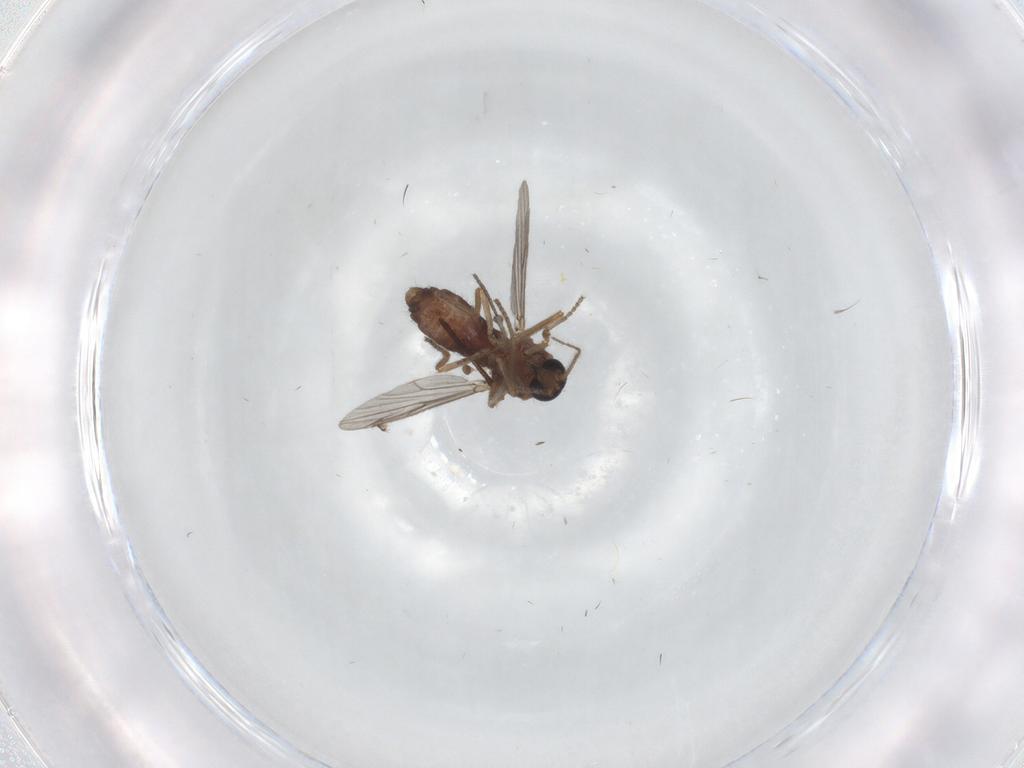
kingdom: Animalia
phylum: Arthropoda
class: Insecta
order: Diptera
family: Ceratopogonidae
